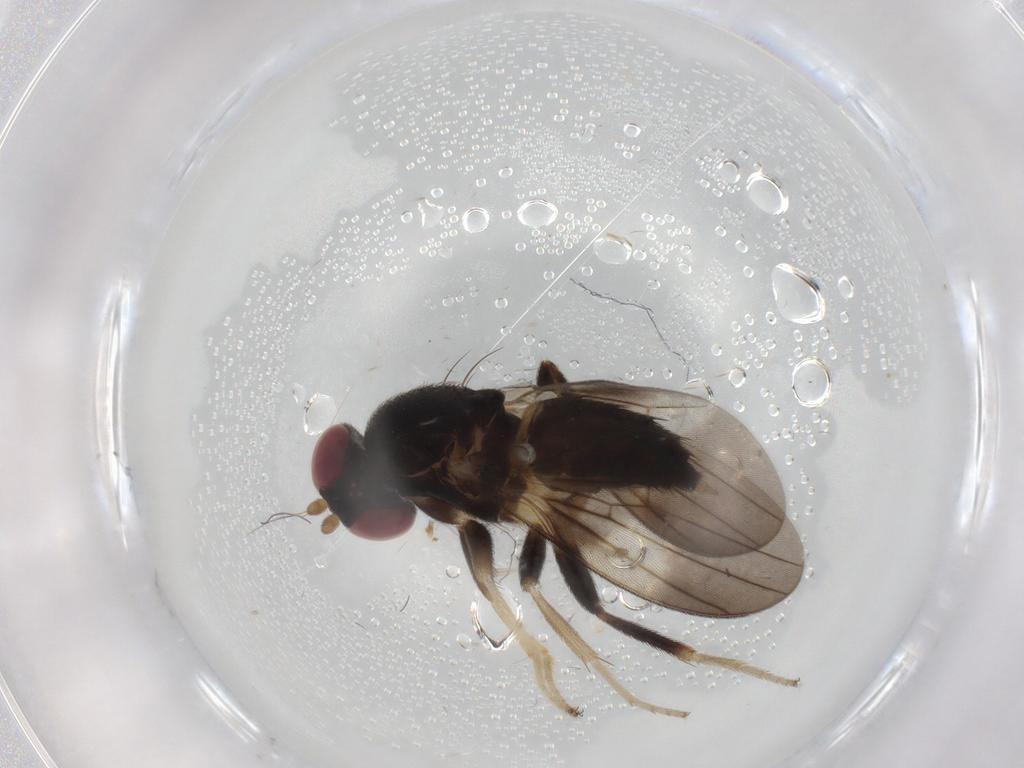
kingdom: Animalia
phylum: Arthropoda
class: Insecta
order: Diptera
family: Clusiidae
